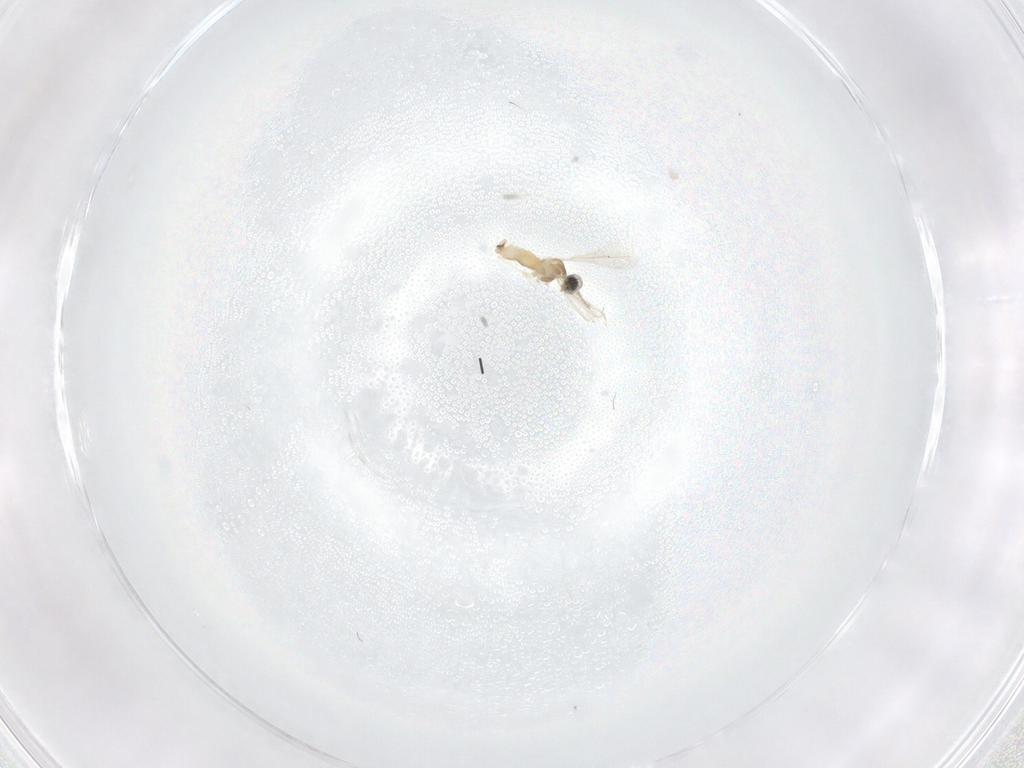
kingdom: Animalia
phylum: Arthropoda
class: Insecta
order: Diptera
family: Cecidomyiidae
